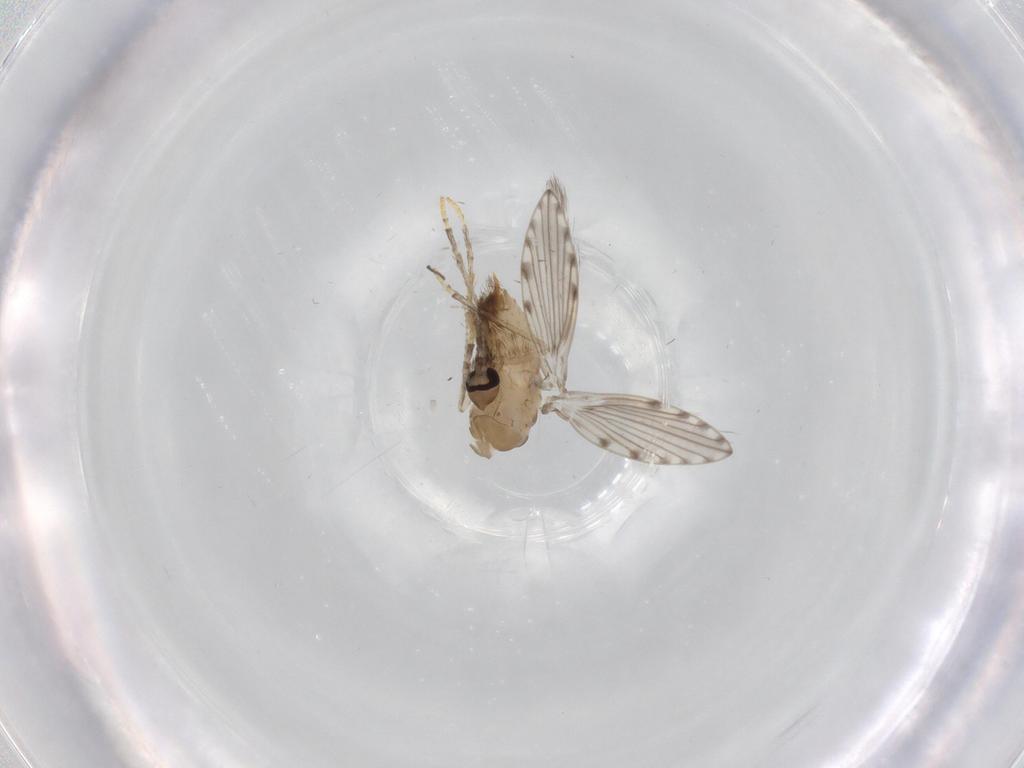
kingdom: Animalia
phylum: Arthropoda
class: Insecta
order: Diptera
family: Psychodidae
